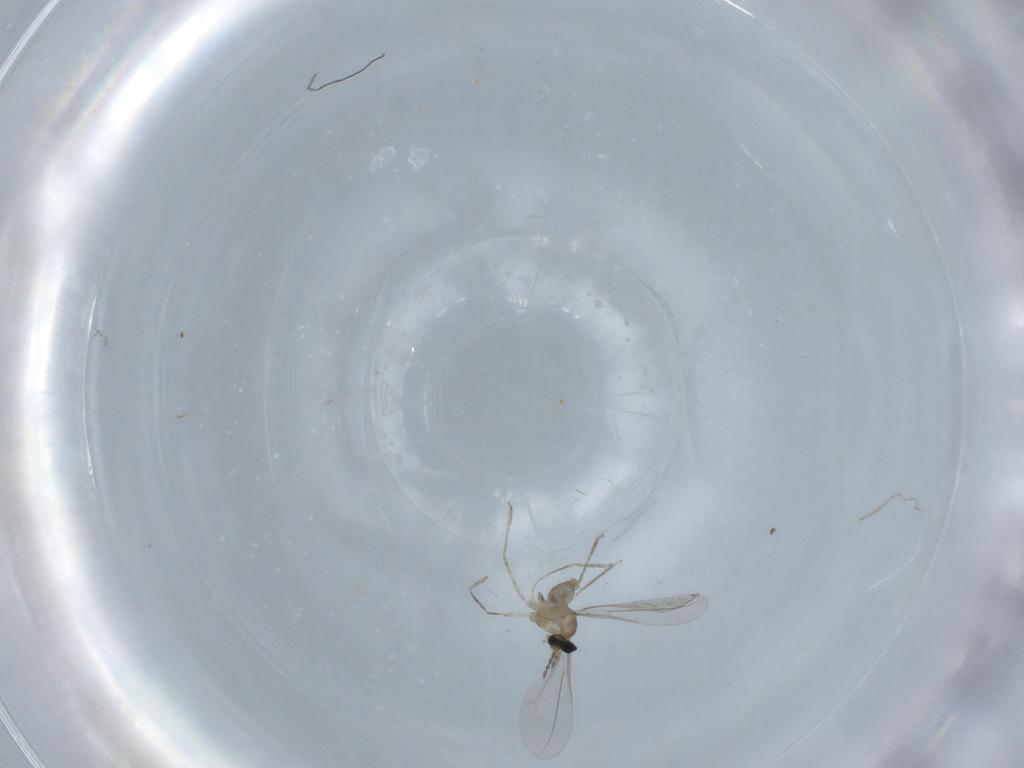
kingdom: Animalia
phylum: Arthropoda
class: Insecta
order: Diptera
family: Cecidomyiidae
